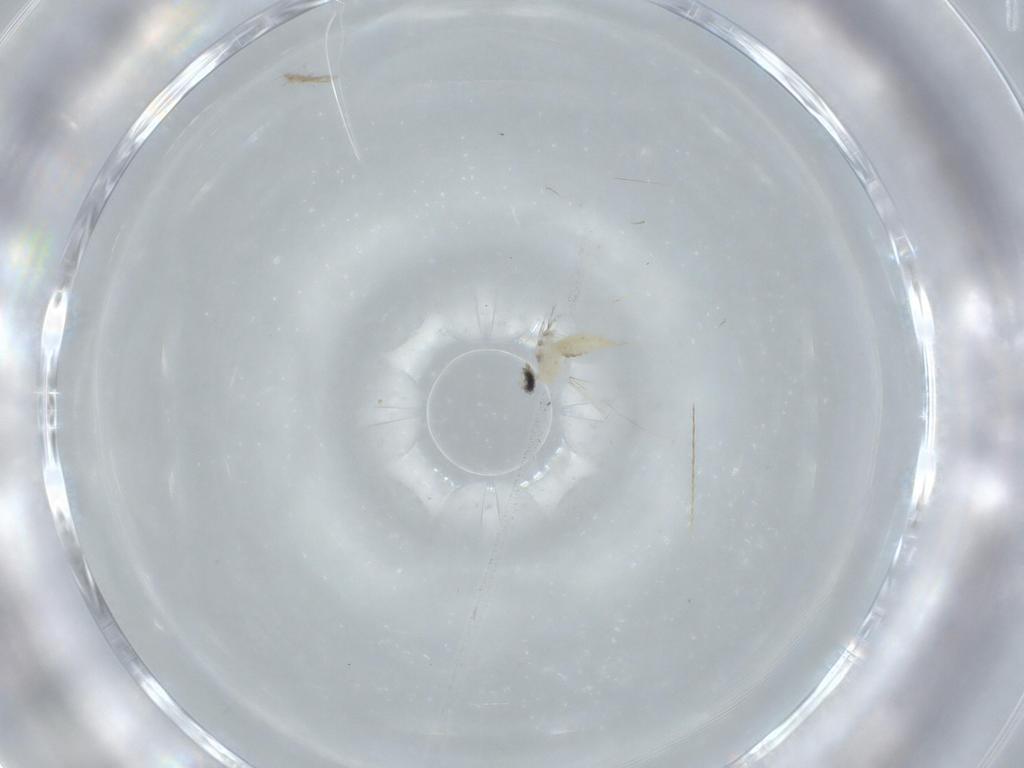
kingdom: Animalia
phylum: Arthropoda
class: Insecta
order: Diptera
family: Cecidomyiidae
